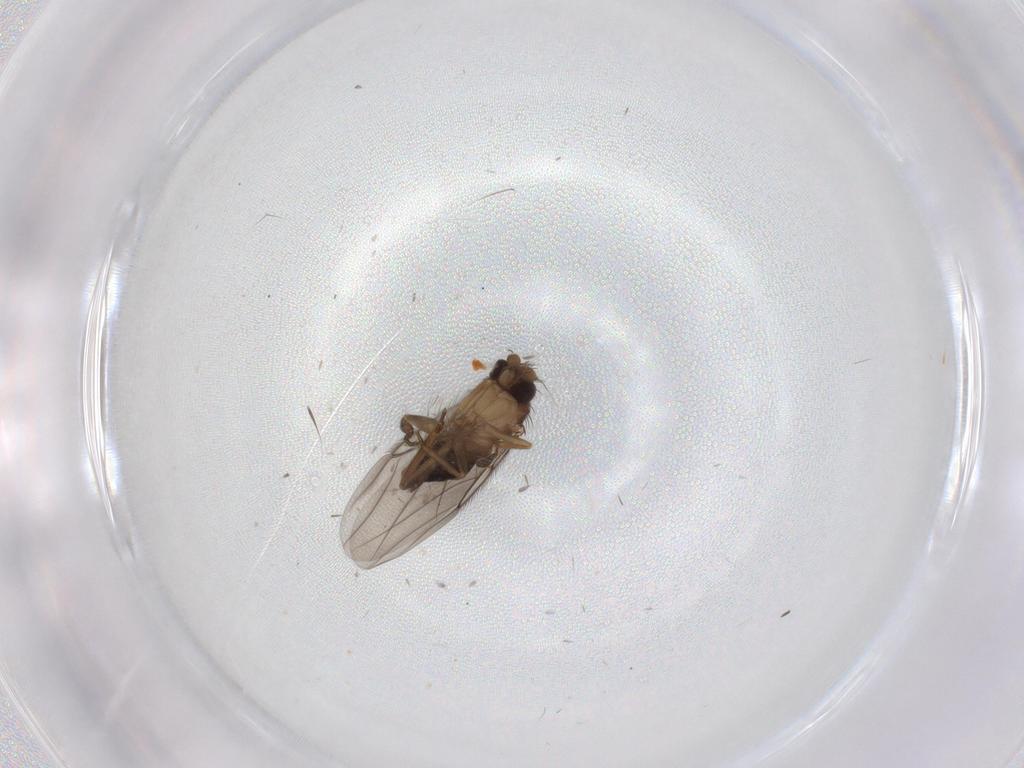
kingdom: Animalia
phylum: Arthropoda
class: Insecta
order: Diptera
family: Phoridae
